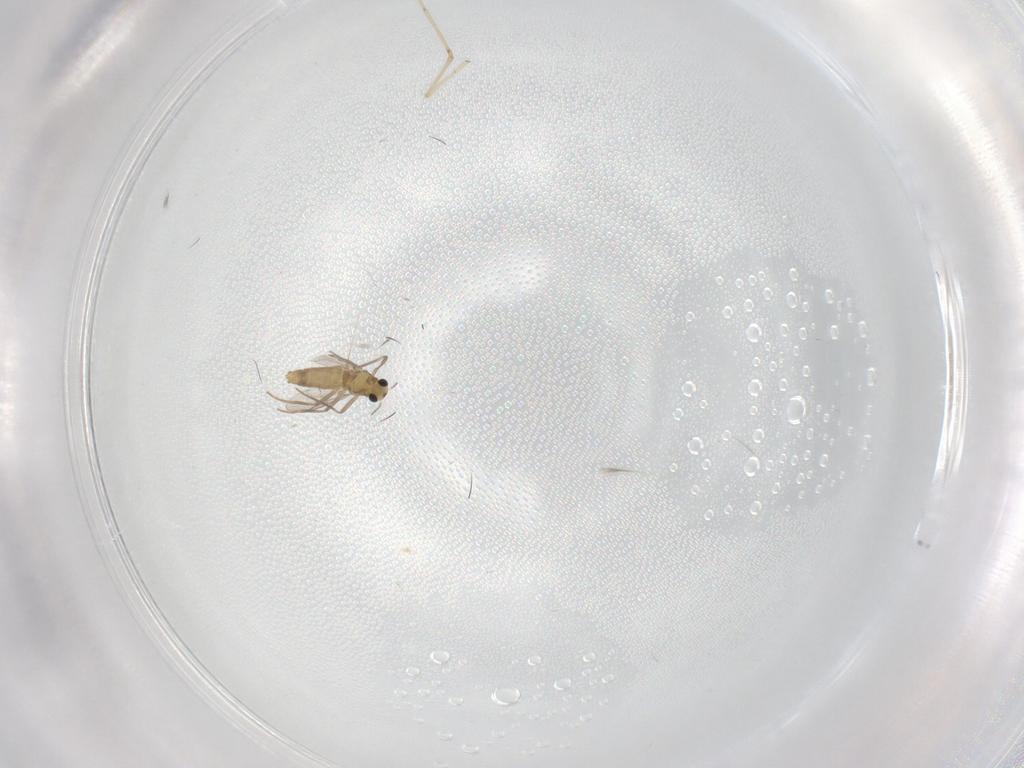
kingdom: Animalia
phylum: Arthropoda
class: Insecta
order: Diptera
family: Chironomidae
